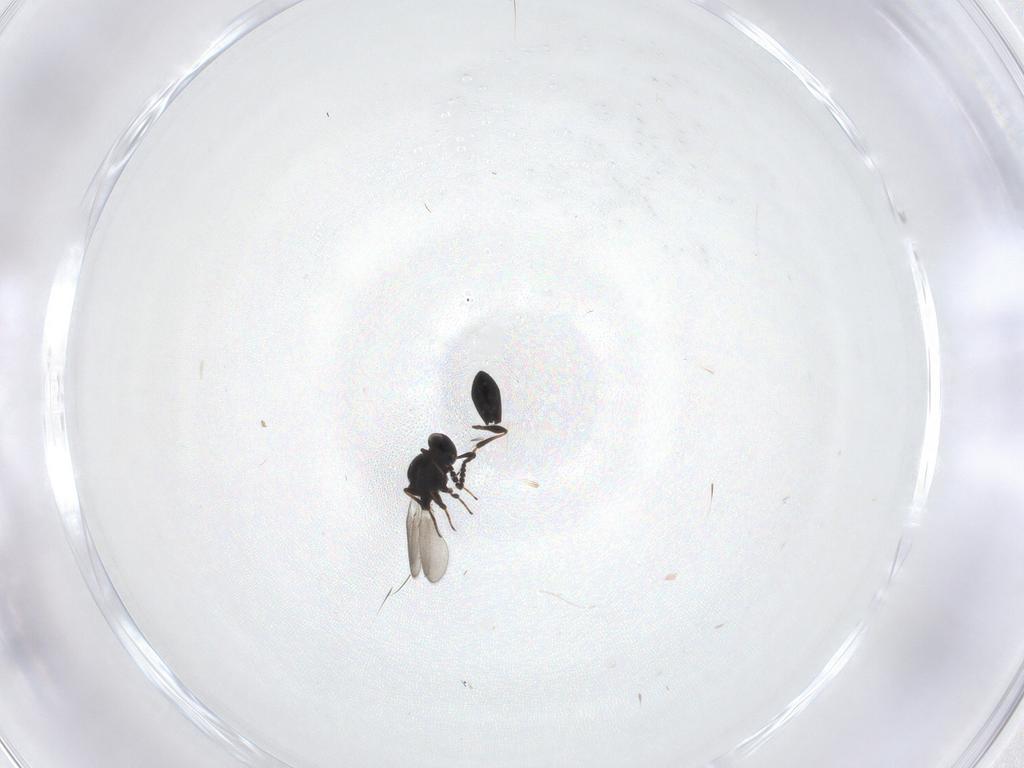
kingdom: Animalia
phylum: Arthropoda
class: Insecta
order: Hymenoptera
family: Platygastridae
